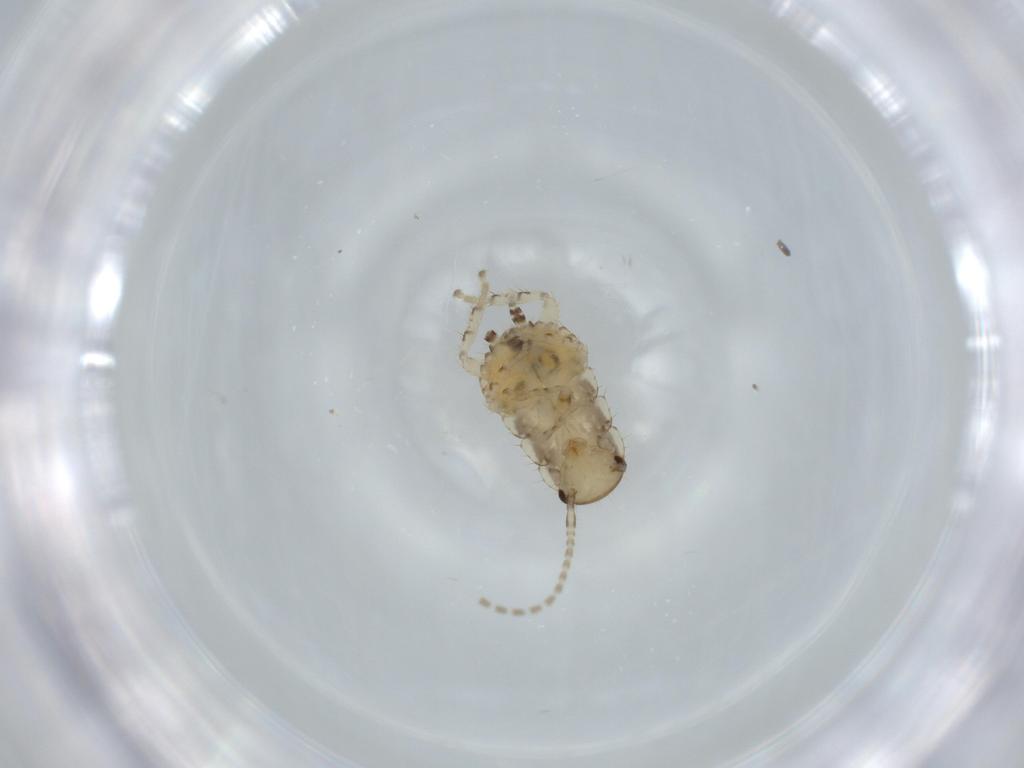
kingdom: Animalia
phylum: Arthropoda
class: Insecta
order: Blattodea
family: Ectobiidae
